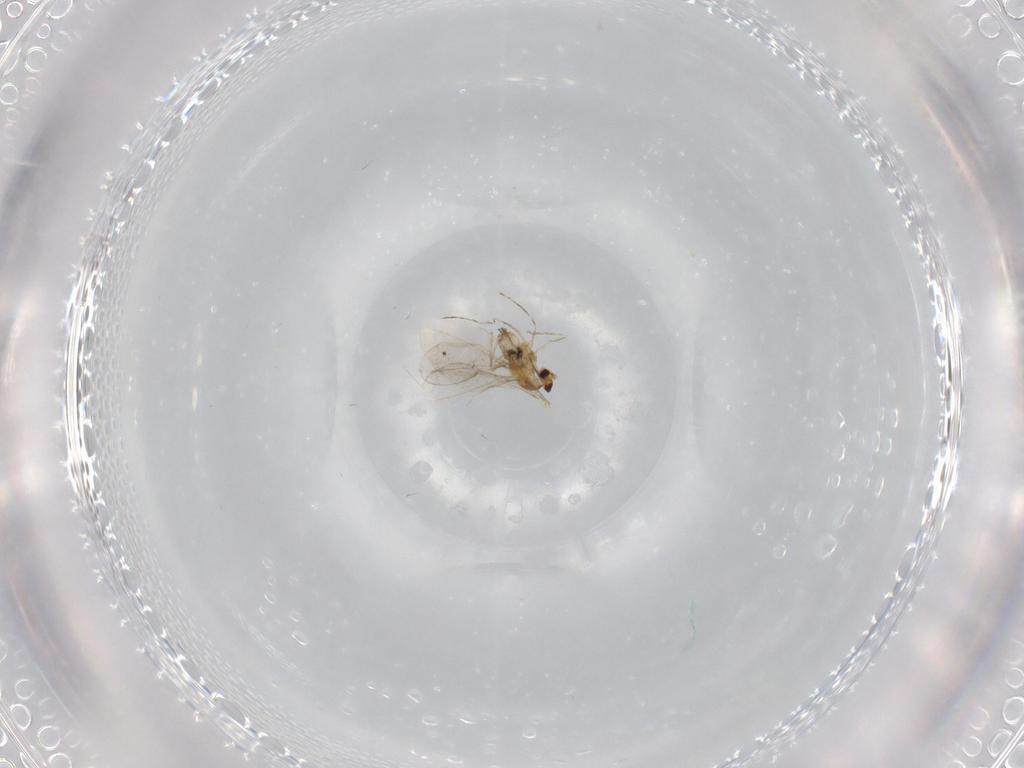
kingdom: Animalia
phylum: Arthropoda
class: Insecta
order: Diptera
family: Cecidomyiidae
